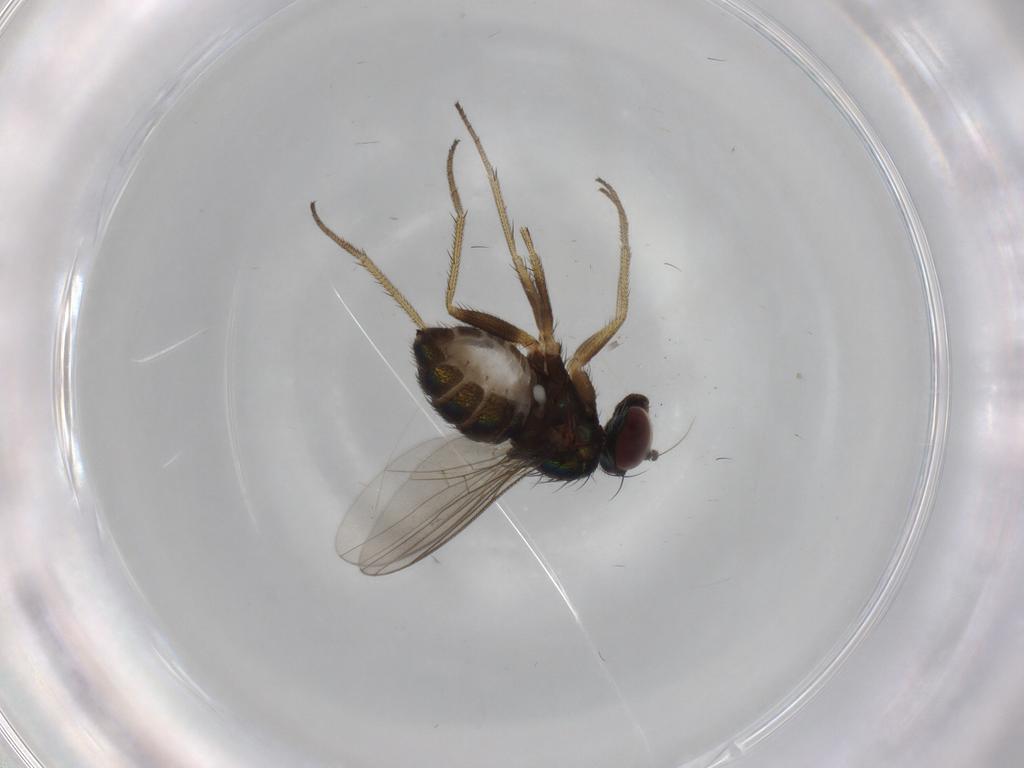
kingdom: Animalia
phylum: Arthropoda
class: Insecta
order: Diptera
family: Dolichopodidae
